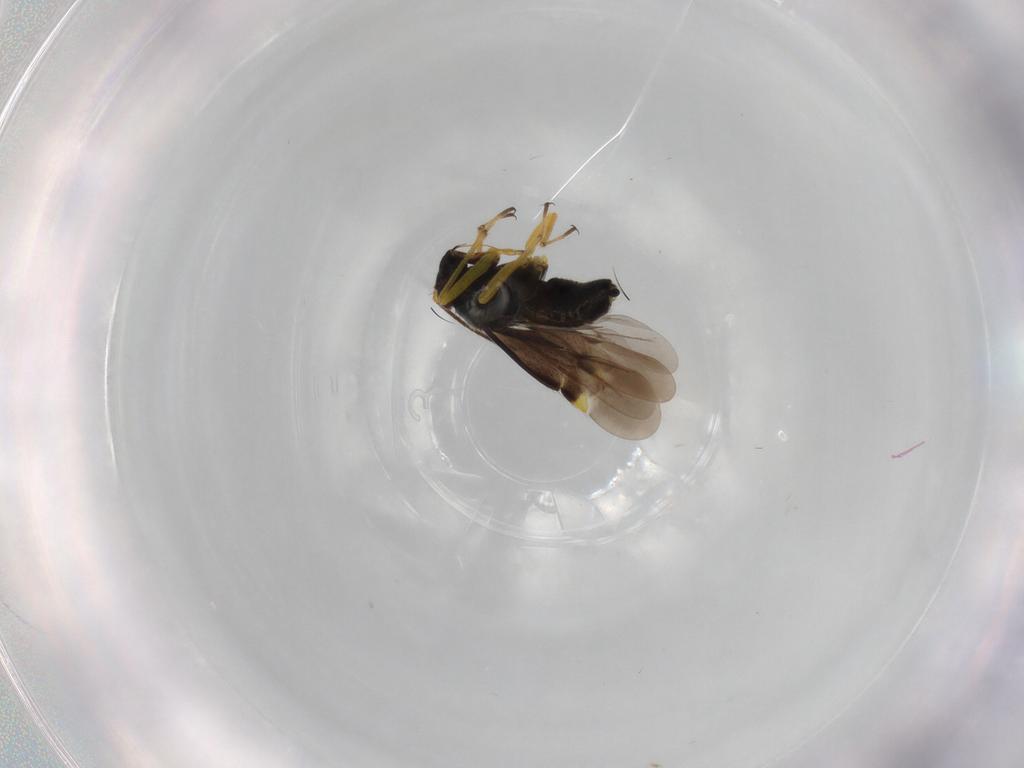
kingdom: Animalia
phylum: Arthropoda
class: Insecta
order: Hemiptera
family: Miridae
